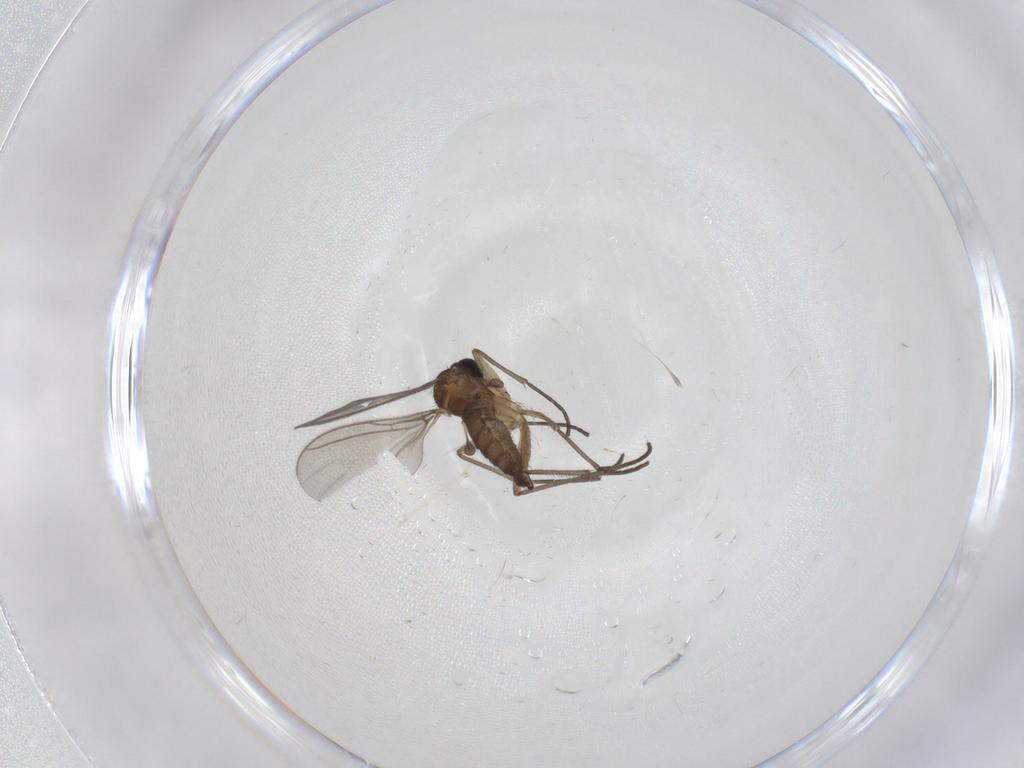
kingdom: Animalia
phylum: Arthropoda
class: Insecta
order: Diptera
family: Sciaridae
